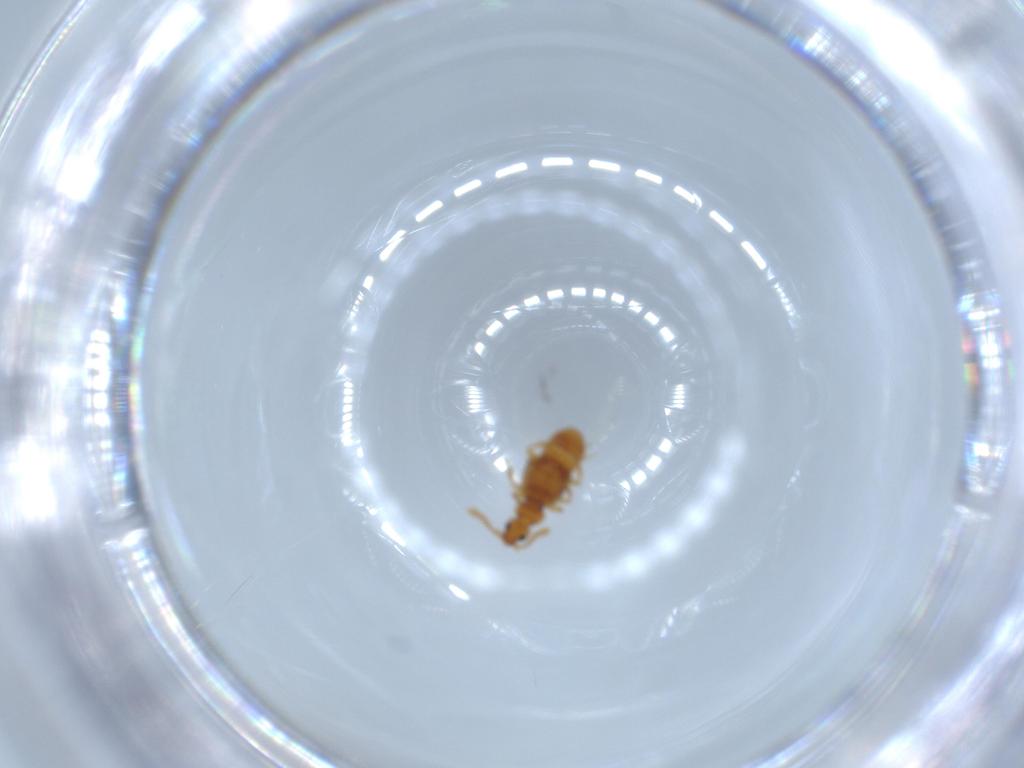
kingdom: Animalia
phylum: Arthropoda
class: Insecta
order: Coleoptera
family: Staphylinidae
